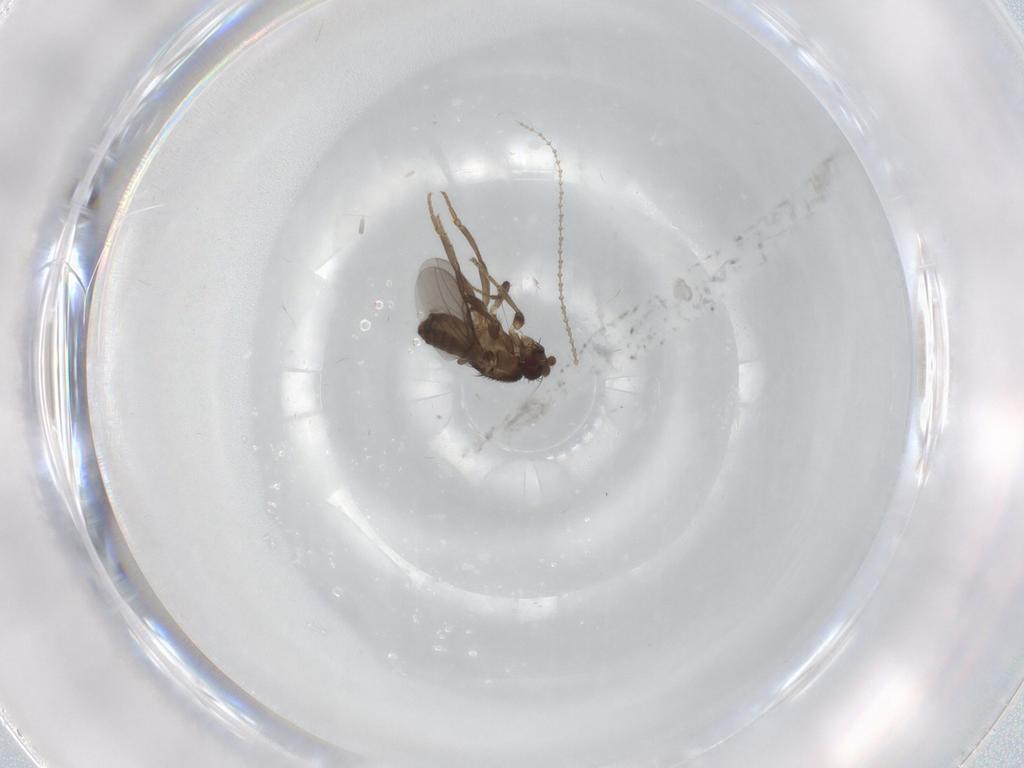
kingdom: Animalia
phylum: Arthropoda
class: Insecta
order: Diptera
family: Sphaeroceridae
